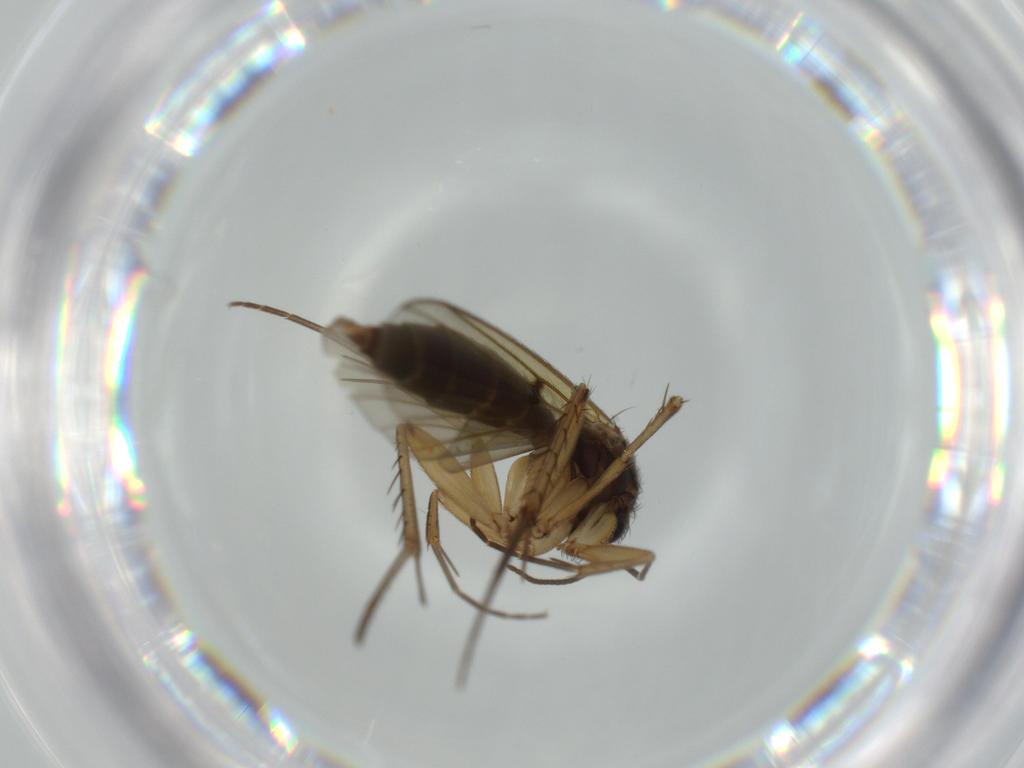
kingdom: Animalia
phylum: Arthropoda
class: Insecta
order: Diptera
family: Mycetophilidae
